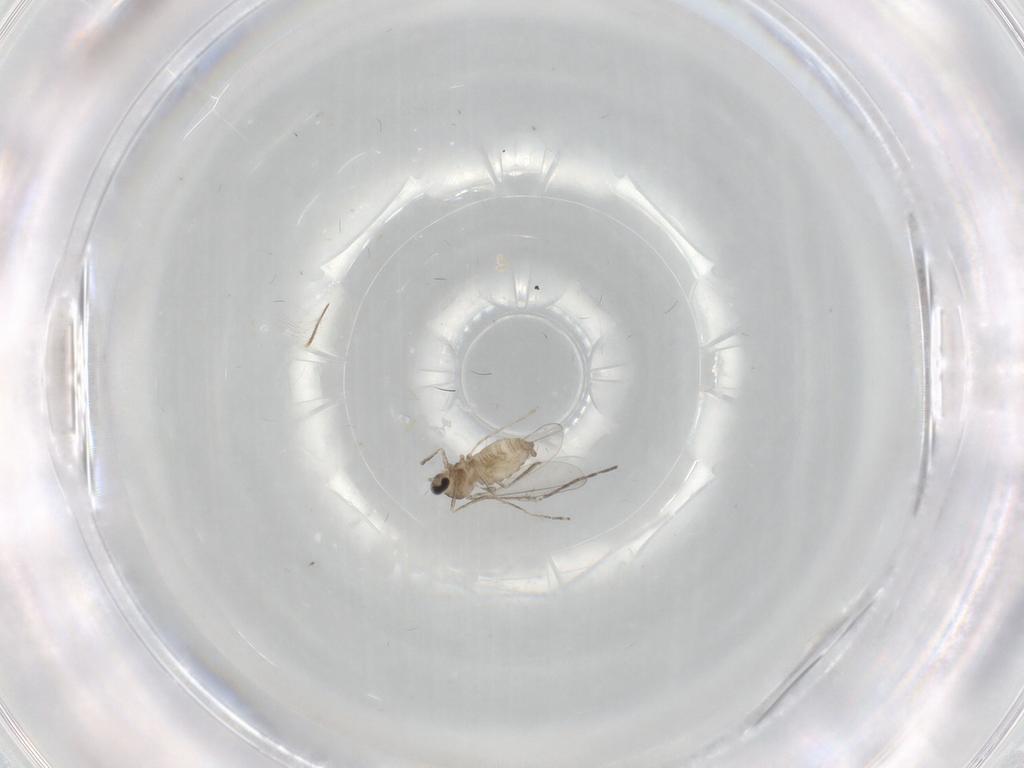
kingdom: Animalia
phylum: Arthropoda
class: Insecta
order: Diptera
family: Cecidomyiidae
